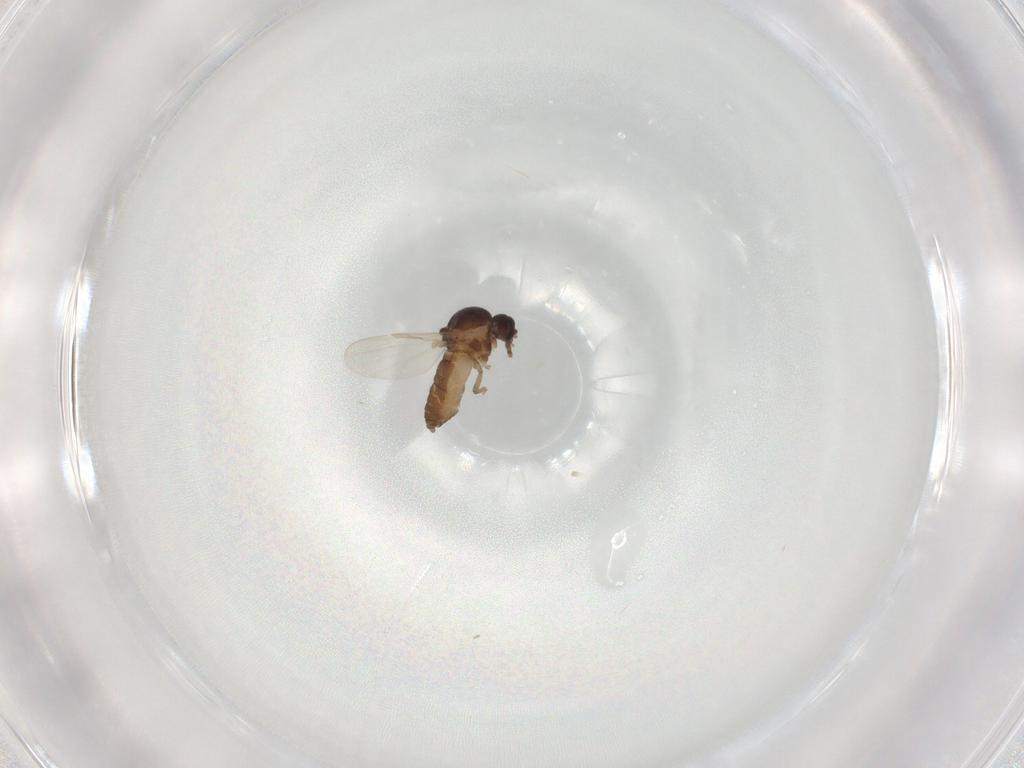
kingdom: Animalia
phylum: Arthropoda
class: Insecta
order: Diptera
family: Ceratopogonidae
